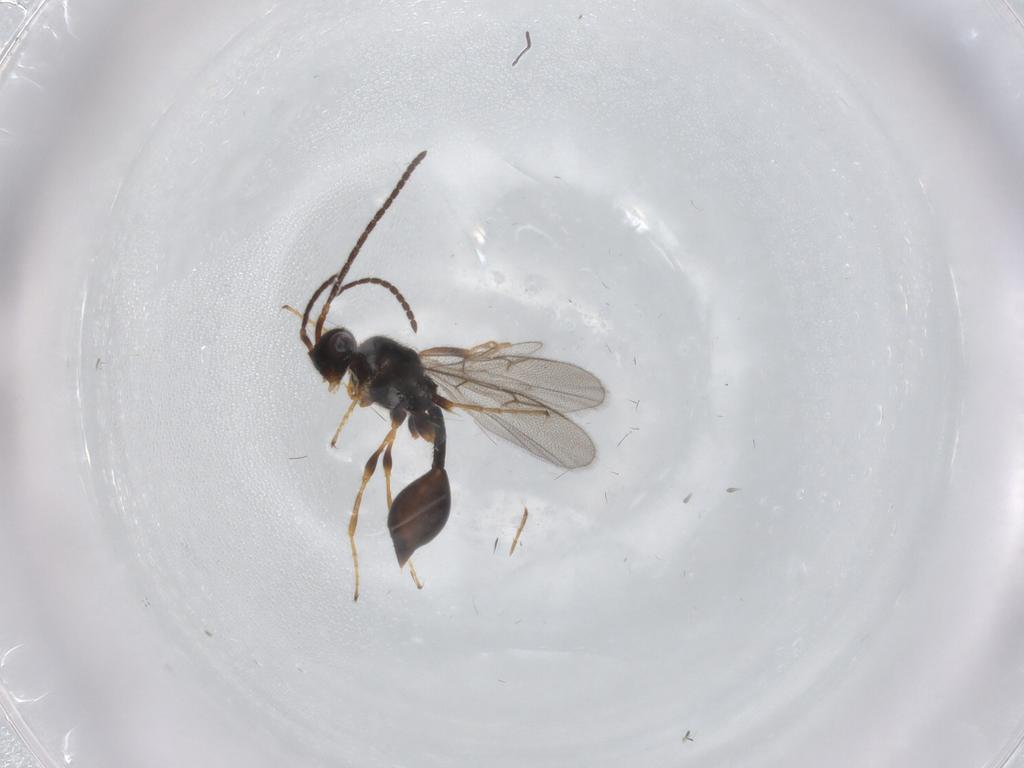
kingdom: Animalia
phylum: Arthropoda
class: Insecta
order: Hymenoptera
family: Diapriidae
